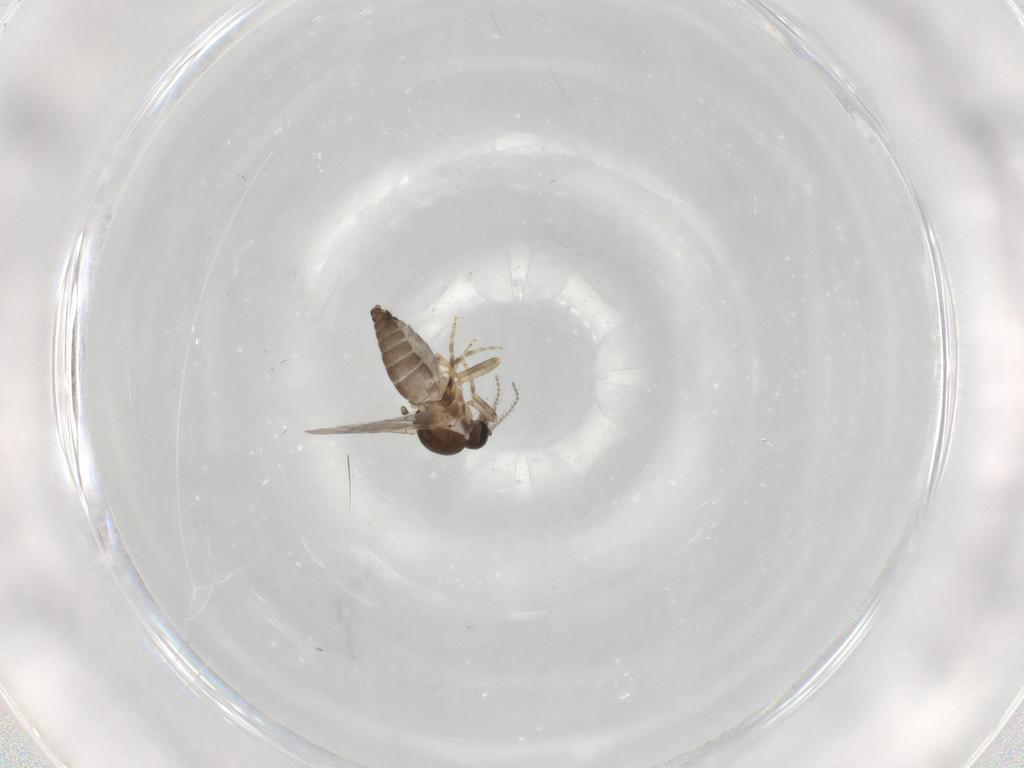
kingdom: Animalia
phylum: Arthropoda
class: Insecta
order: Diptera
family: Ceratopogonidae
